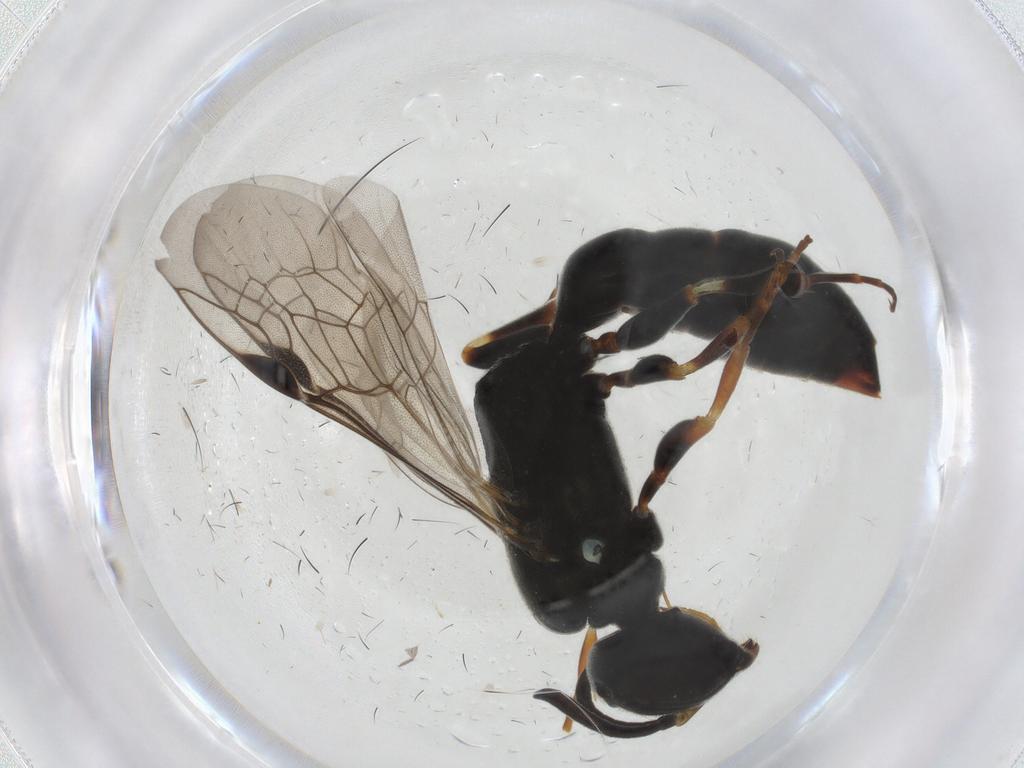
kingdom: Animalia
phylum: Arthropoda
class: Insecta
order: Hymenoptera
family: Pemphredonidae
